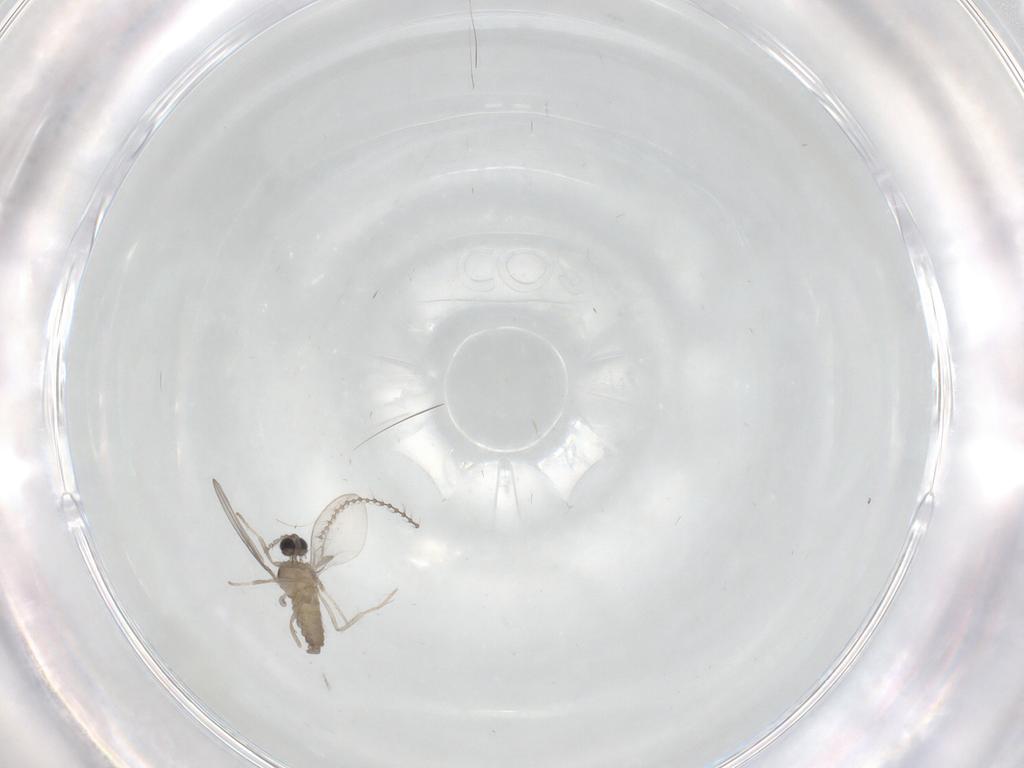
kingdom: Animalia
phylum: Arthropoda
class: Insecta
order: Diptera
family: Cecidomyiidae
